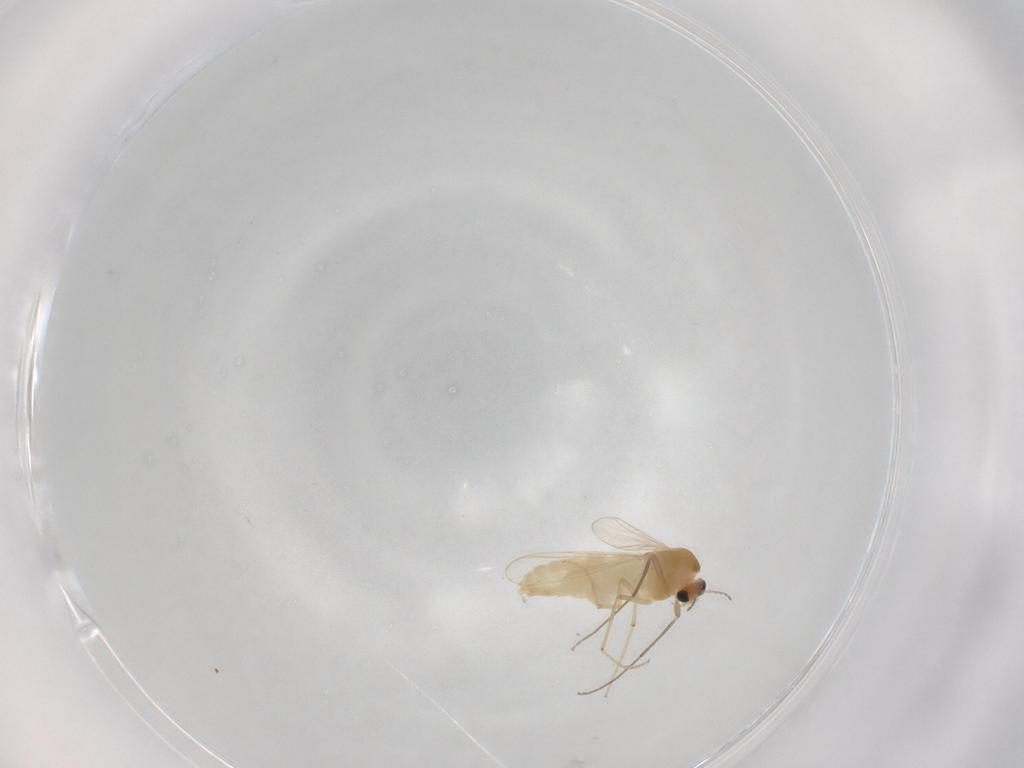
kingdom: Animalia
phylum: Arthropoda
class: Insecta
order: Diptera
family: Chironomidae
